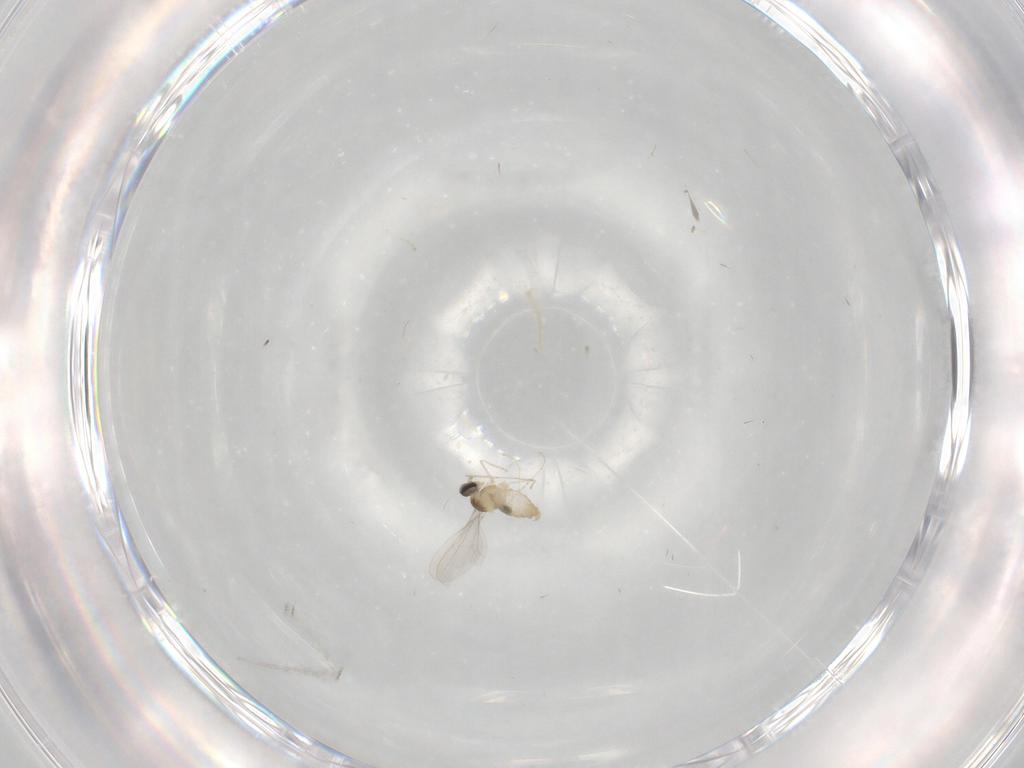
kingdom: Animalia
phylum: Arthropoda
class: Insecta
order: Diptera
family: Cecidomyiidae
